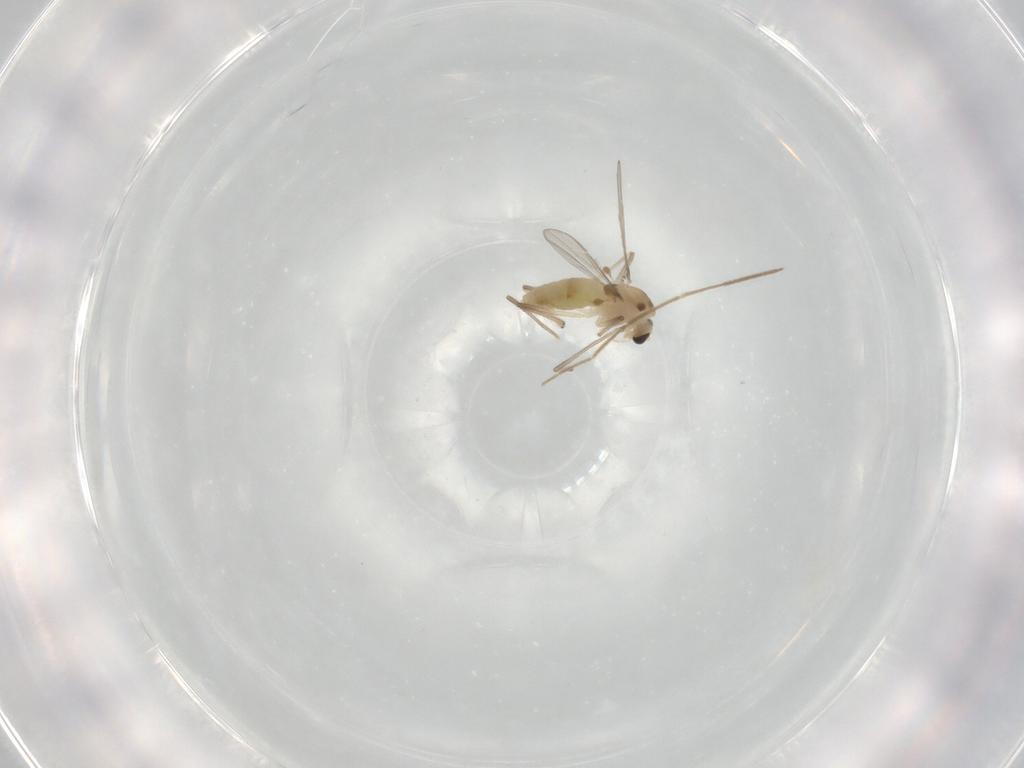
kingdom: Animalia
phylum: Arthropoda
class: Insecta
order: Diptera
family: Chironomidae
